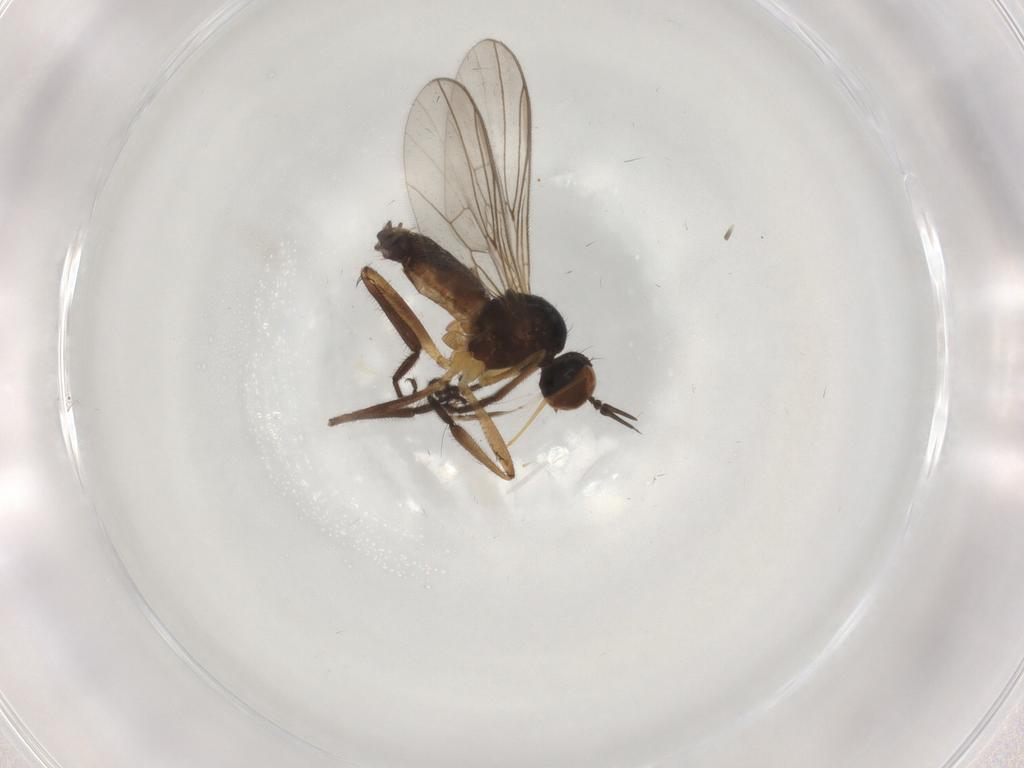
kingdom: Animalia
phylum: Arthropoda
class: Insecta
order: Diptera
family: Empididae
